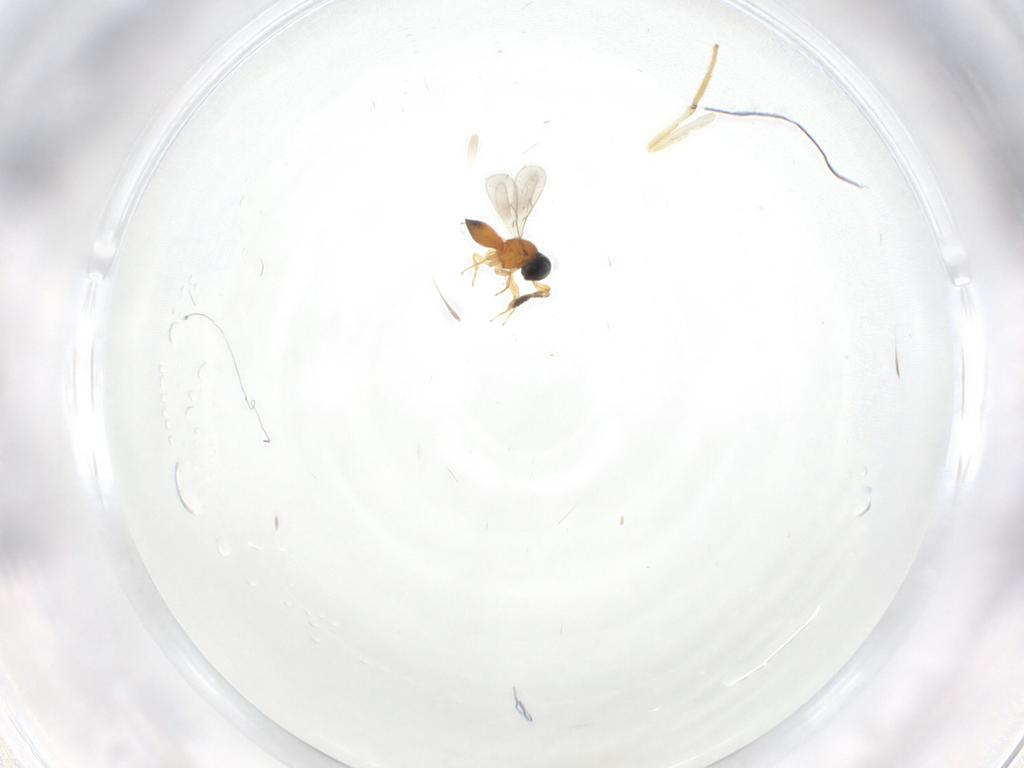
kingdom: Animalia
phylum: Arthropoda
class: Insecta
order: Hymenoptera
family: Scelionidae
